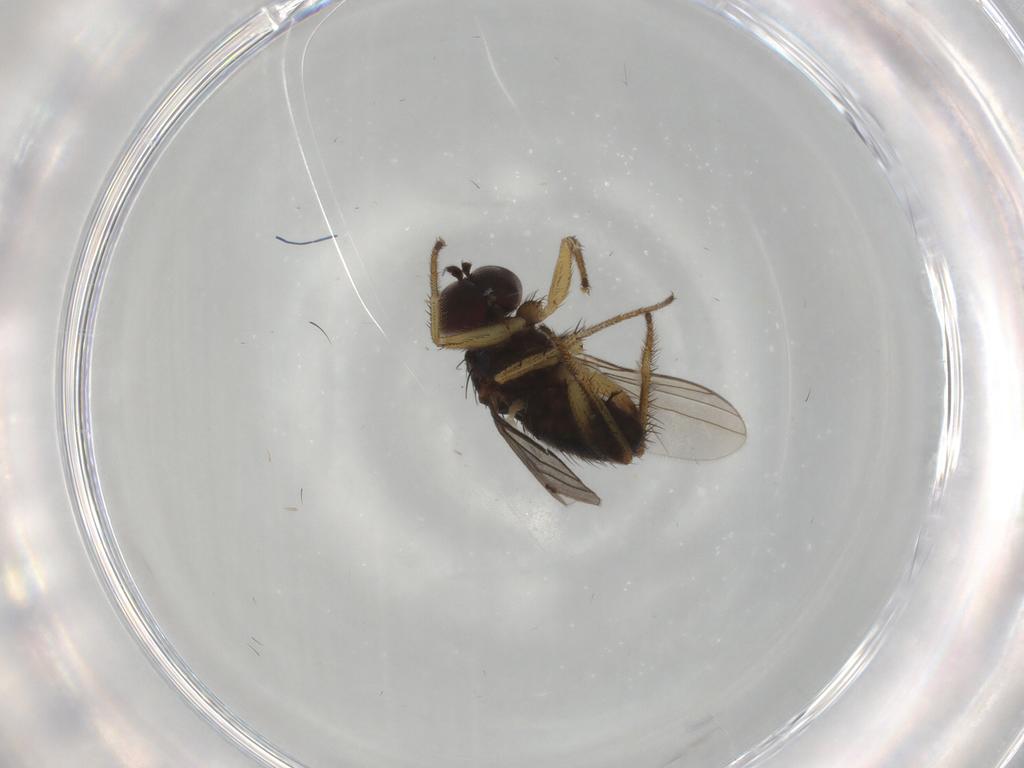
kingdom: Animalia
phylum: Arthropoda
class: Insecta
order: Diptera
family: Dolichopodidae
